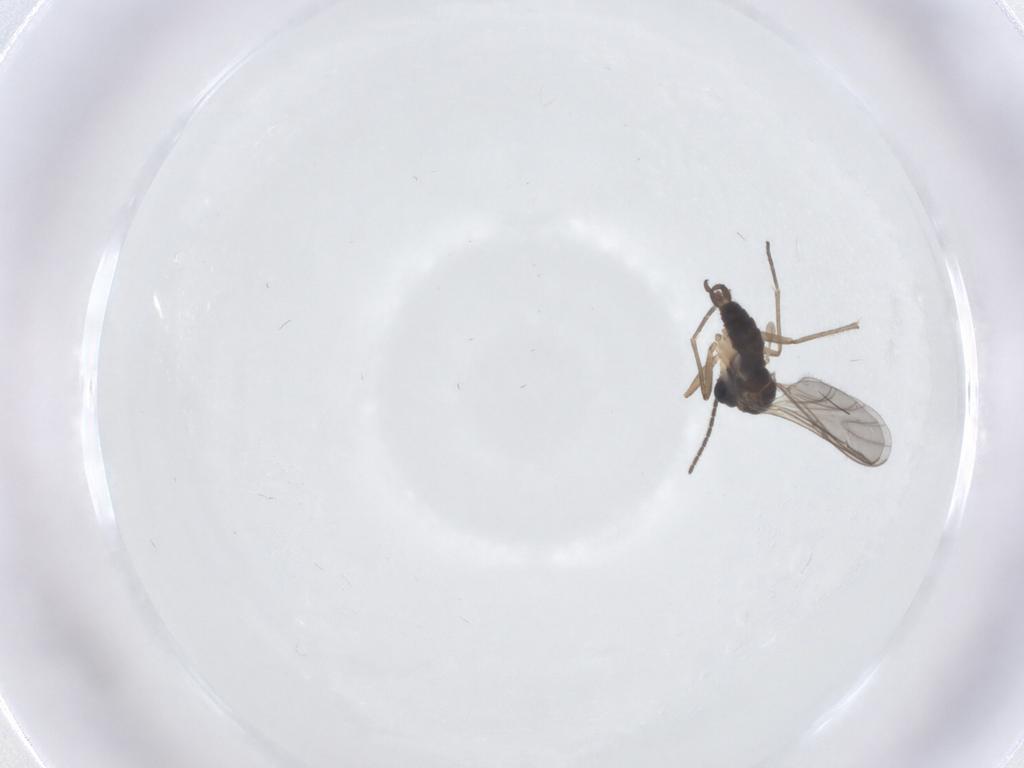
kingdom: Animalia
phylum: Arthropoda
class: Insecta
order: Diptera
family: Sciaridae
